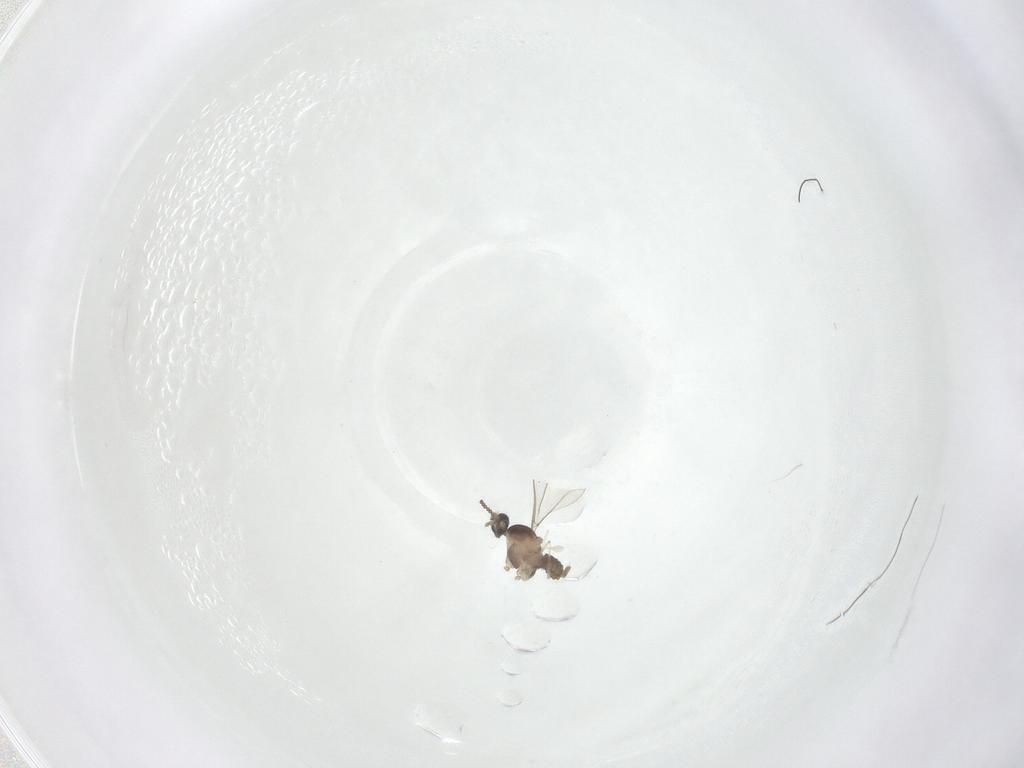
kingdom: Animalia
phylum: Arthropoda
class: Insecta
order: Diptera
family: Cecidomyiidae
